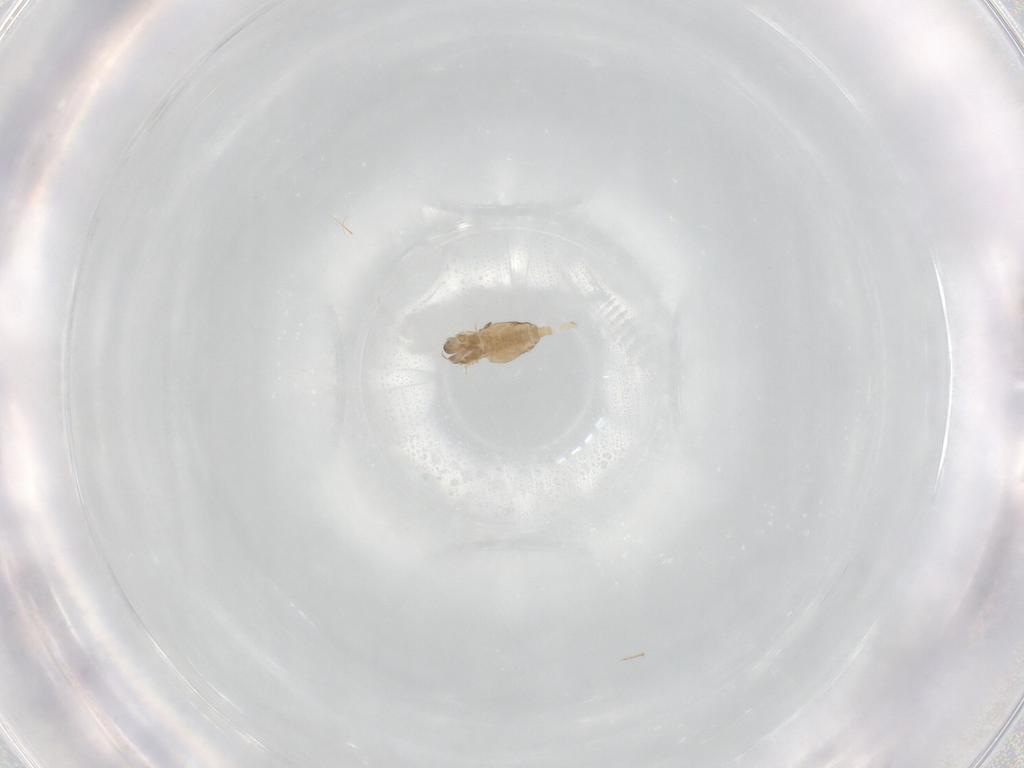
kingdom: Animalia
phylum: Arthropoda
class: Insecta
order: Diptera
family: Cecidomyiidae
